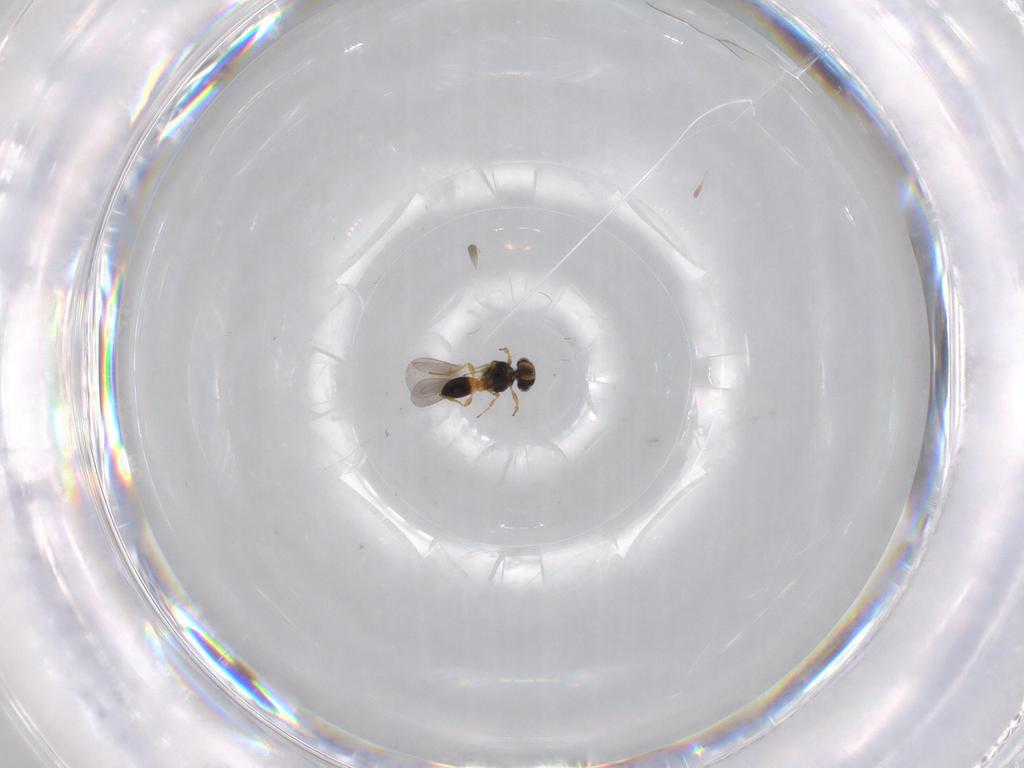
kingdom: Animalia
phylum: Arthropoda
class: Insecta
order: Hymenoptera
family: Platygastridae
